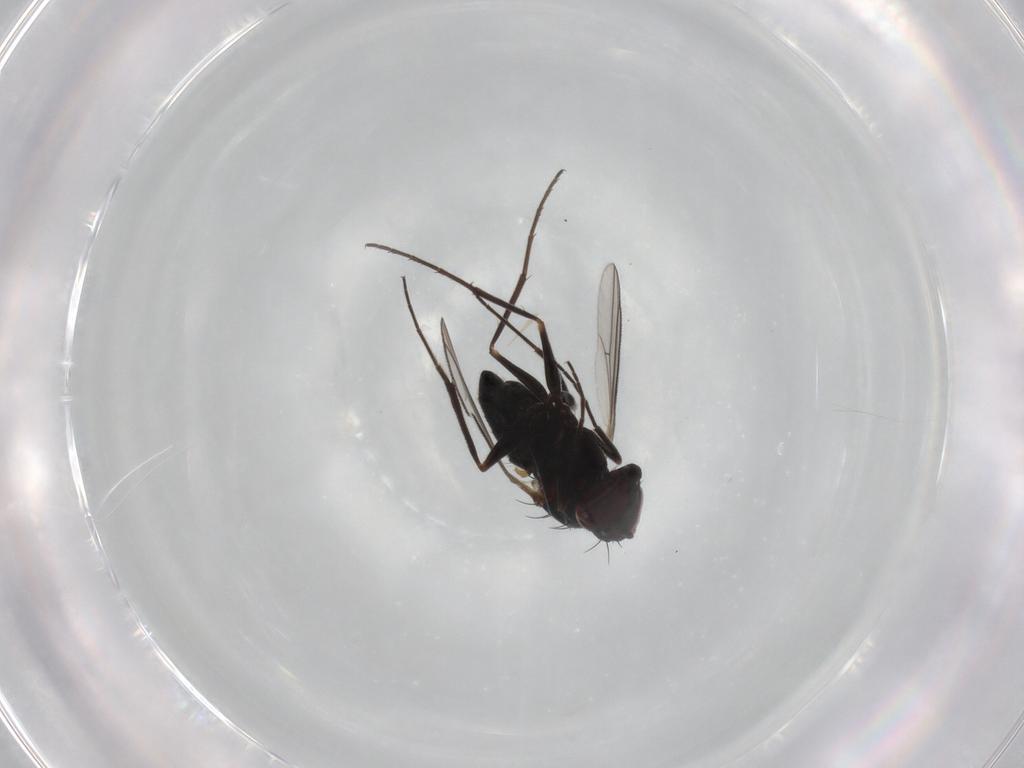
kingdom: Animalia
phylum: Arthropoda
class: Insecta
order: Diptera
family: Dolichopodidae
